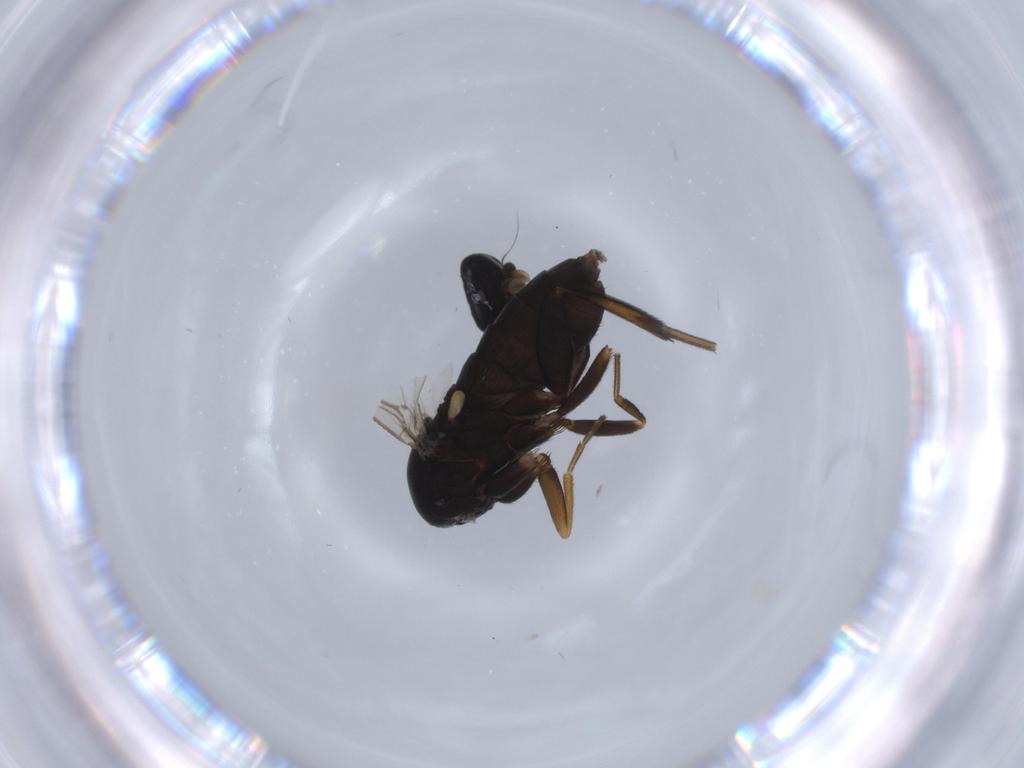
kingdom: Animalia
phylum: Arthropoda
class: Insecta
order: Diptera
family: Phoridae
